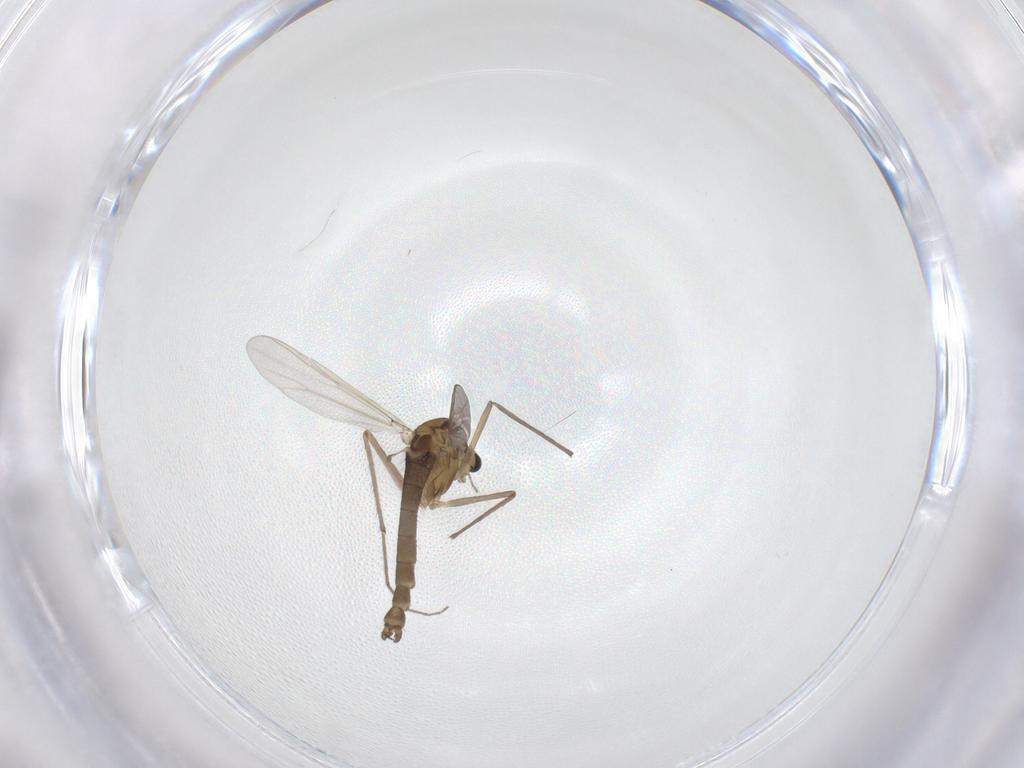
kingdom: Animalia
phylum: Arthropoda
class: Insecta
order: Diptera
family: Chironomidae
